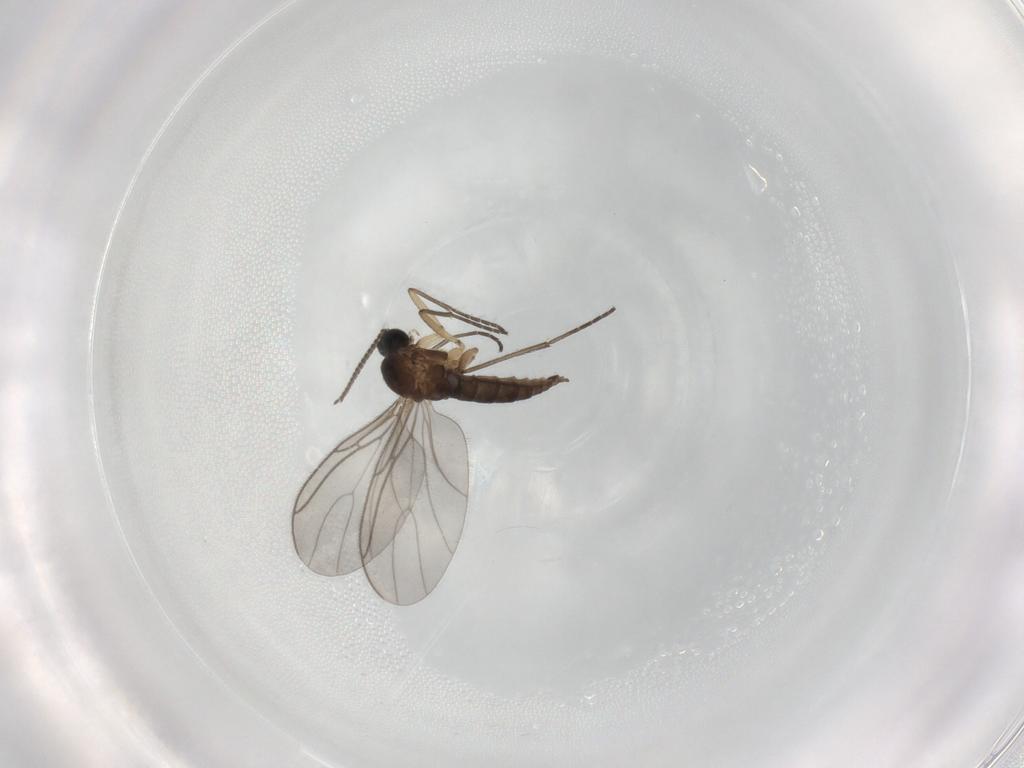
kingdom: Animalia
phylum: Arthropoda
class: Insecta
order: Diptera
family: Sciaridae
